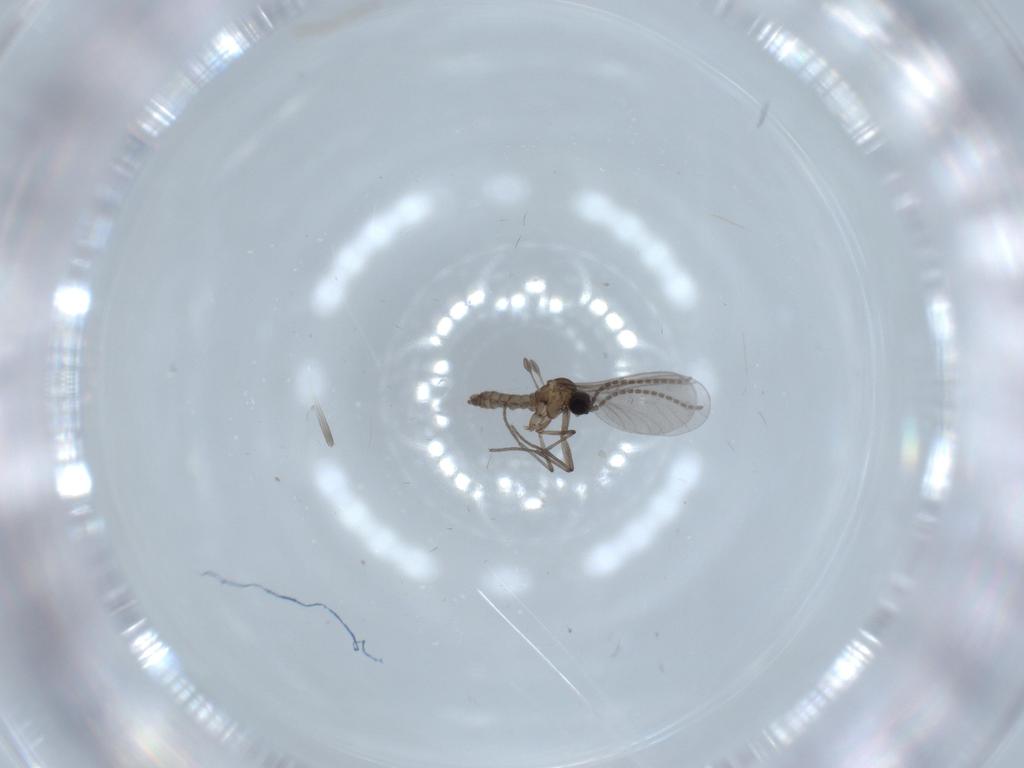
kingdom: Animalia
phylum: Arthropoda
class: Insecta
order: Diptera
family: Sciaridae
